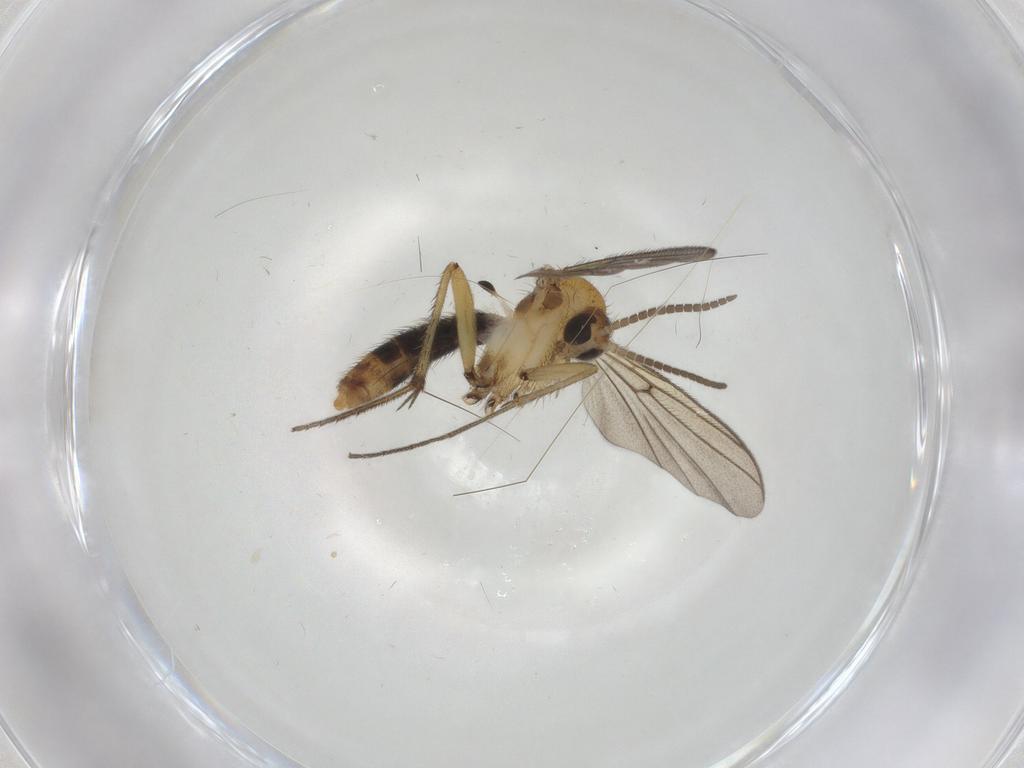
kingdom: Animalia
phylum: Arthropoda
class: Insecta
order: Diptera
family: Mycetophilidae
